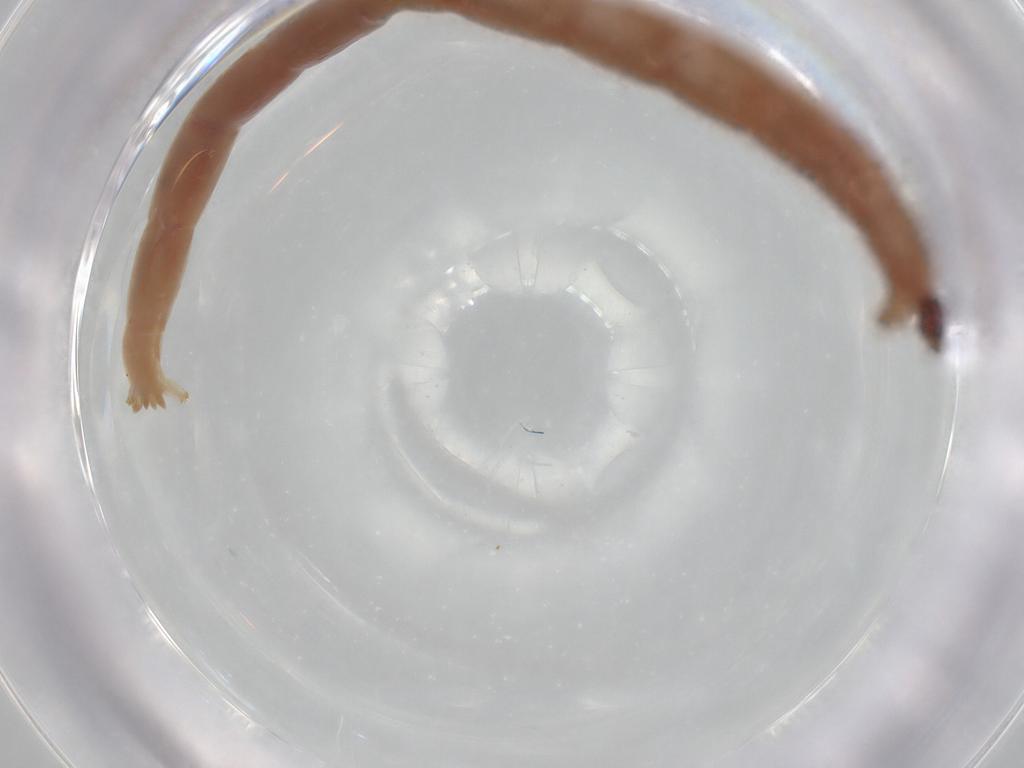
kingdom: Animalia
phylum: Arthropoda
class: Insecta
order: Diptera
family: Chironomidae
